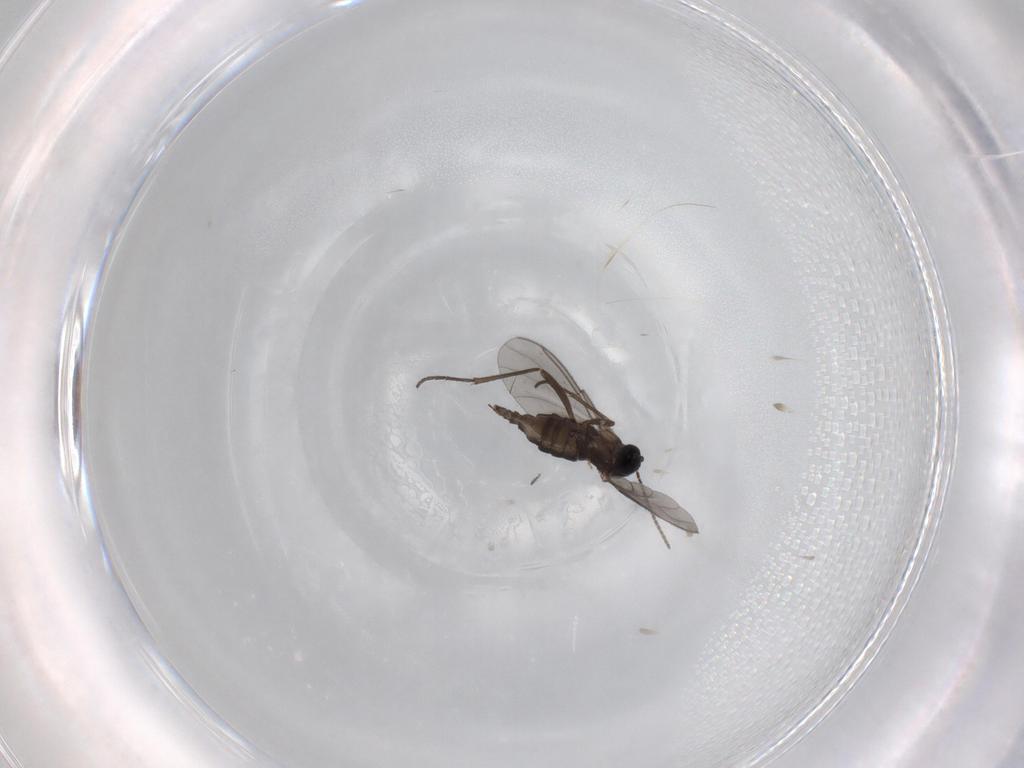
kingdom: Animalia
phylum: Arthropoda
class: Insecta
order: Diptera
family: Sciaridae
